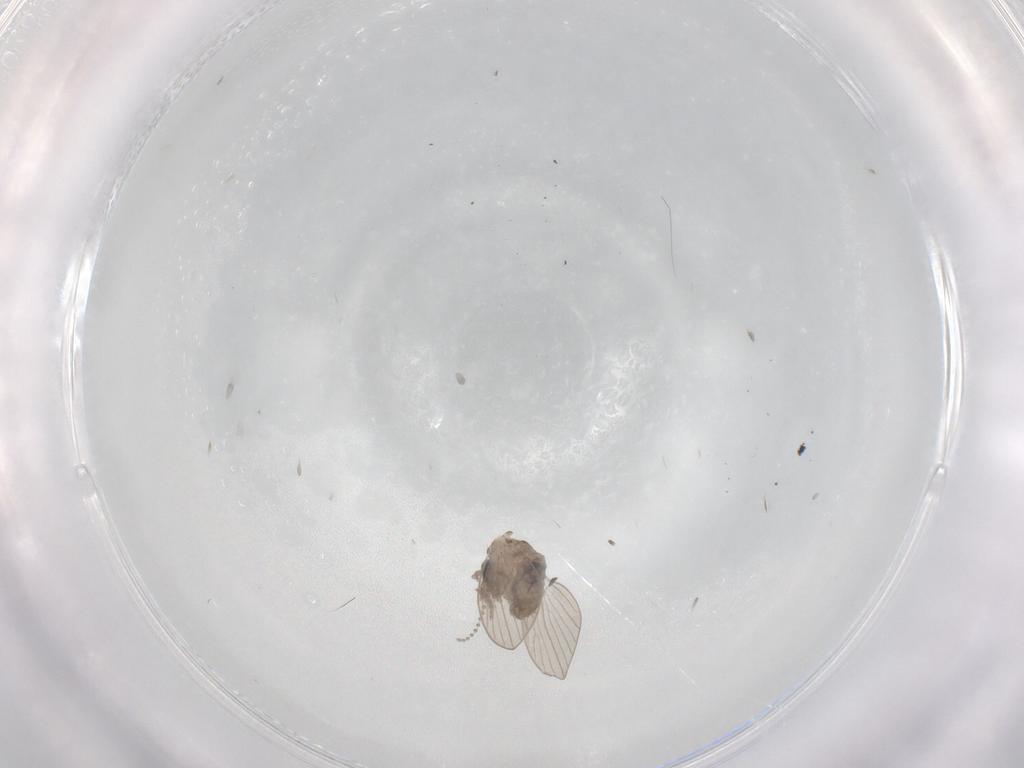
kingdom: Animalia
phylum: Arthropoda
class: Insecta
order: Diptera
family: Psychodidae
